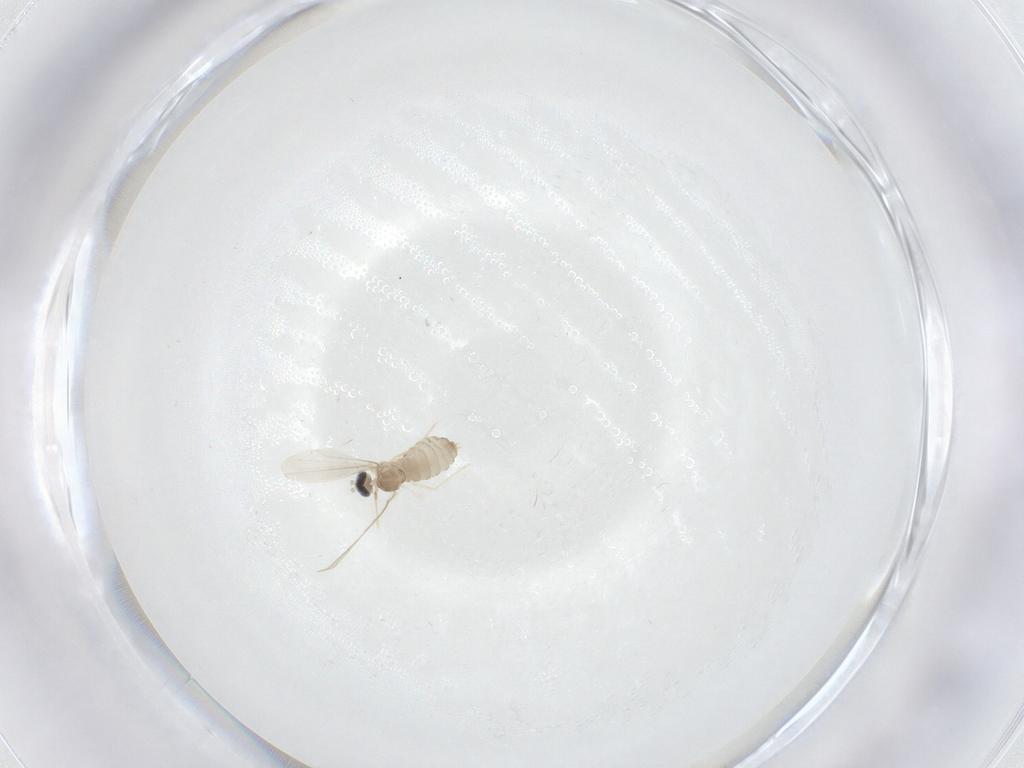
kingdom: Animalia
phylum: Arthropoda
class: Insecta
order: Diptera
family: Cecidomyiidae
